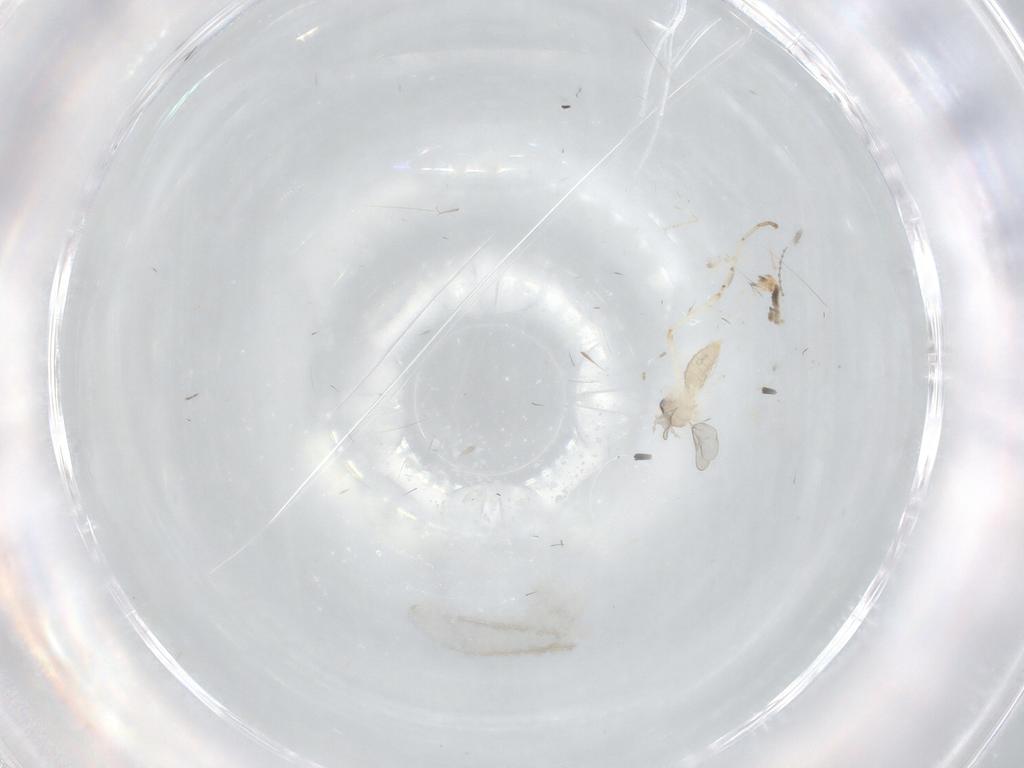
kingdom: Animalia
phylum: Arthropoda
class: Insecta
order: Diptera
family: Cecidomyiidae
